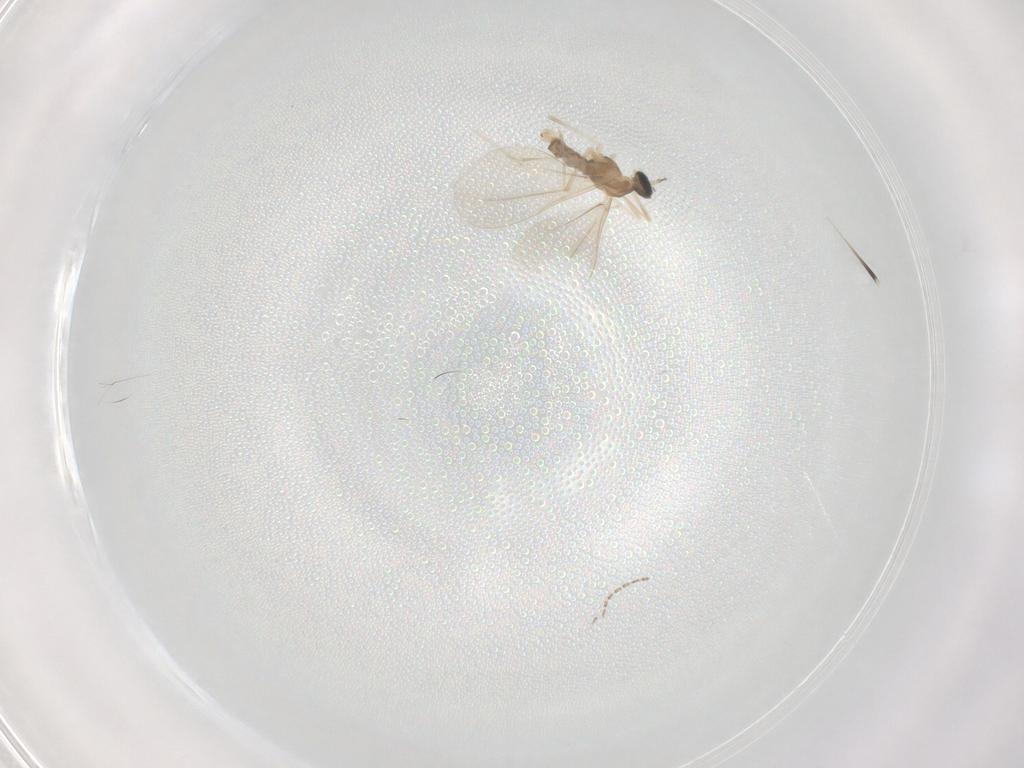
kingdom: Animalia
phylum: Arthropoda
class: Insecta
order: Diptera
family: Cecidomyiidae
